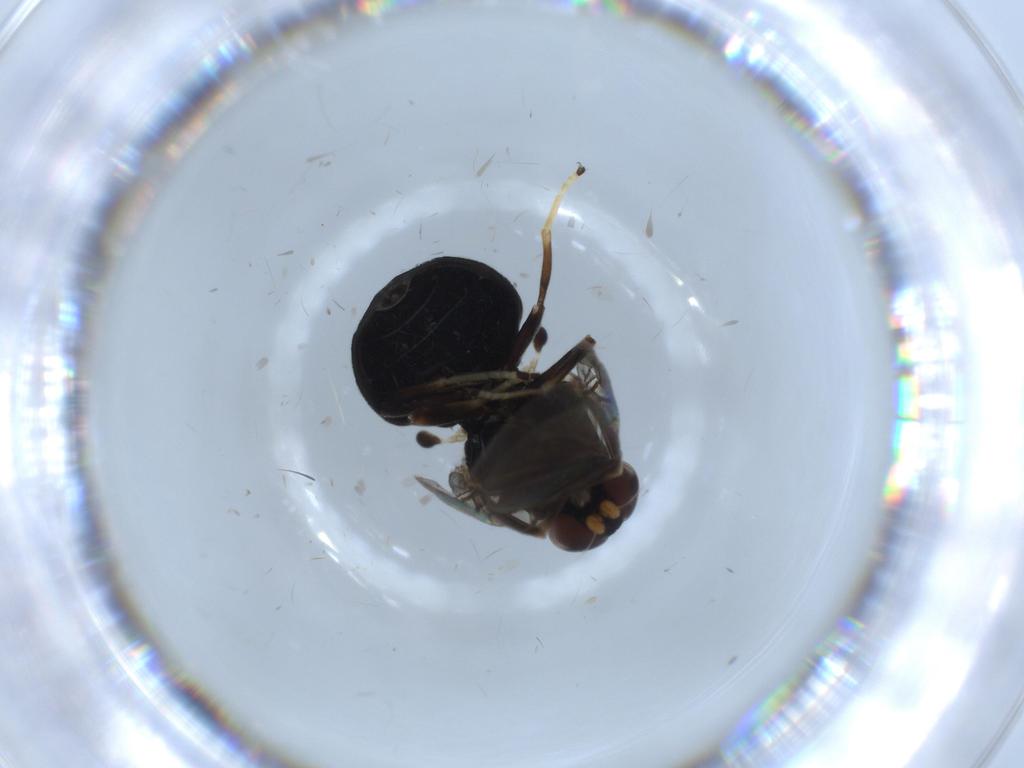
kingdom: Animalia
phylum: Arthropoda
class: Insecta
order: Diptera
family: Stratiomyidae
